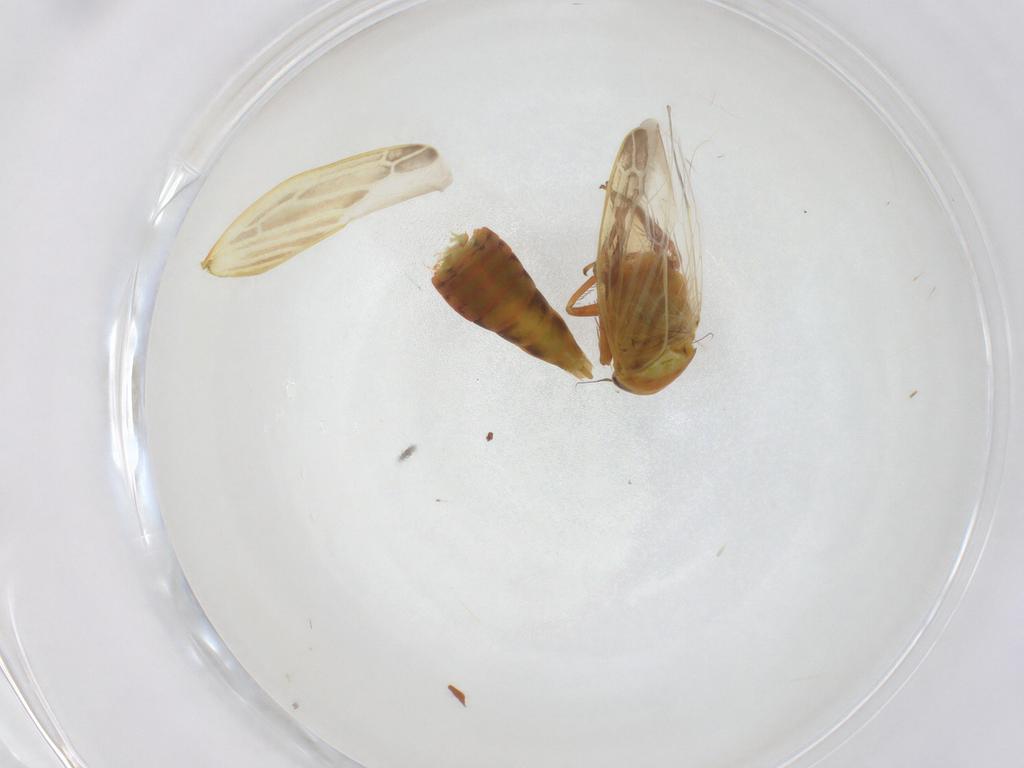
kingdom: Animalia
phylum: Arthropoda
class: Insecta
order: Hemiptera
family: Cicadellidae
